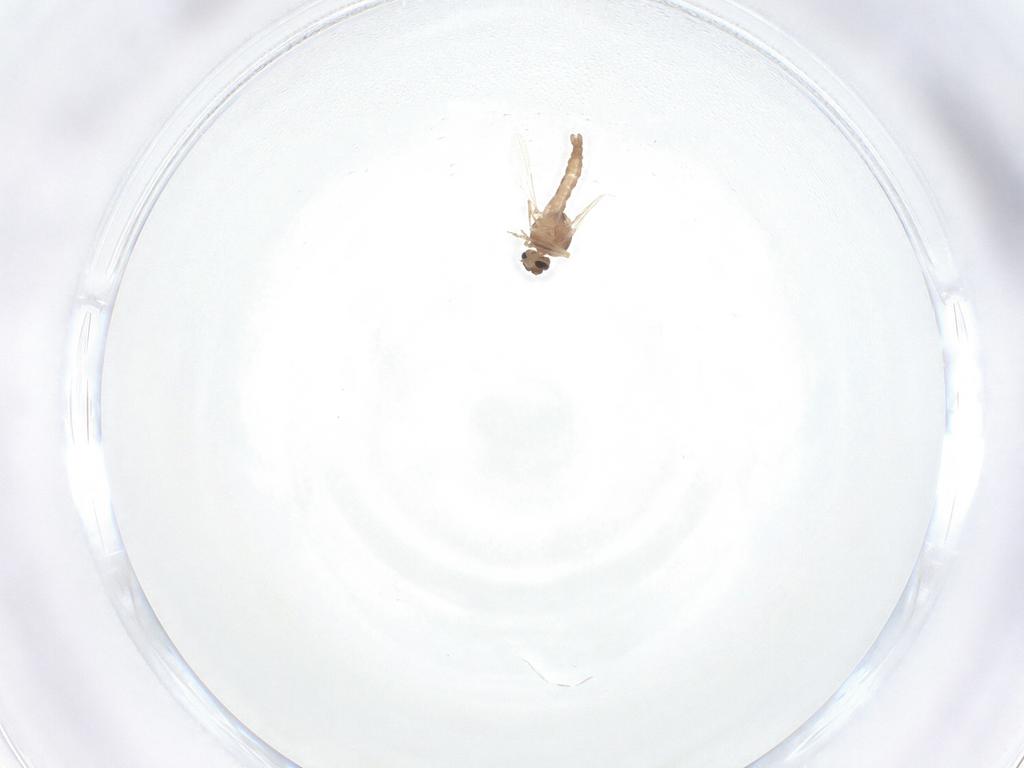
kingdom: Animalia
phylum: Arthropoda
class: Insecta
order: Diptera
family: Ceratopogonidae
